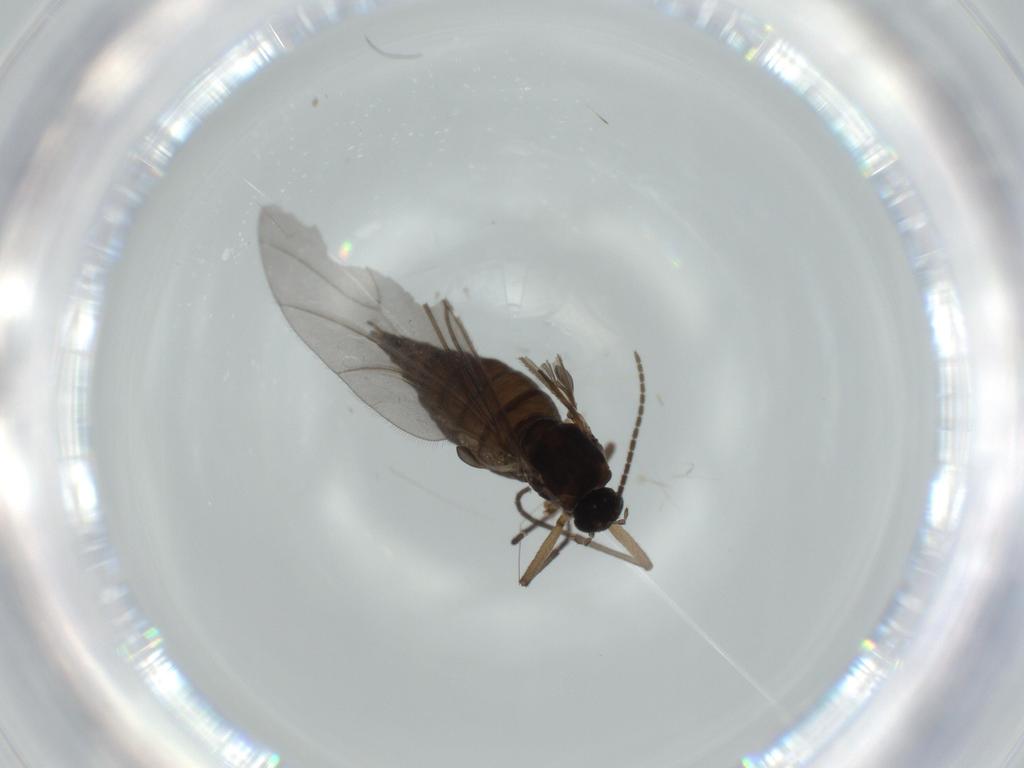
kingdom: Animalia
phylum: Arthropoda
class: Insecta
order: Diptera
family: Sciaridae
